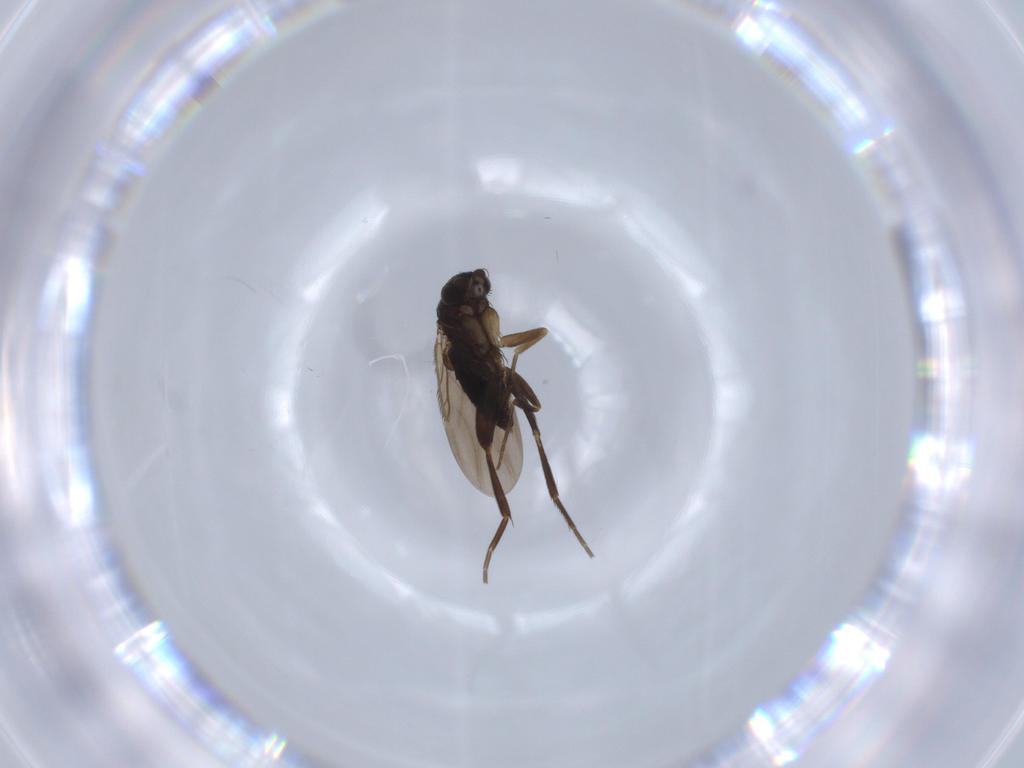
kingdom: Animalia
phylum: Arthropoda
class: Insecta
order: Diptera
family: Phoridae
